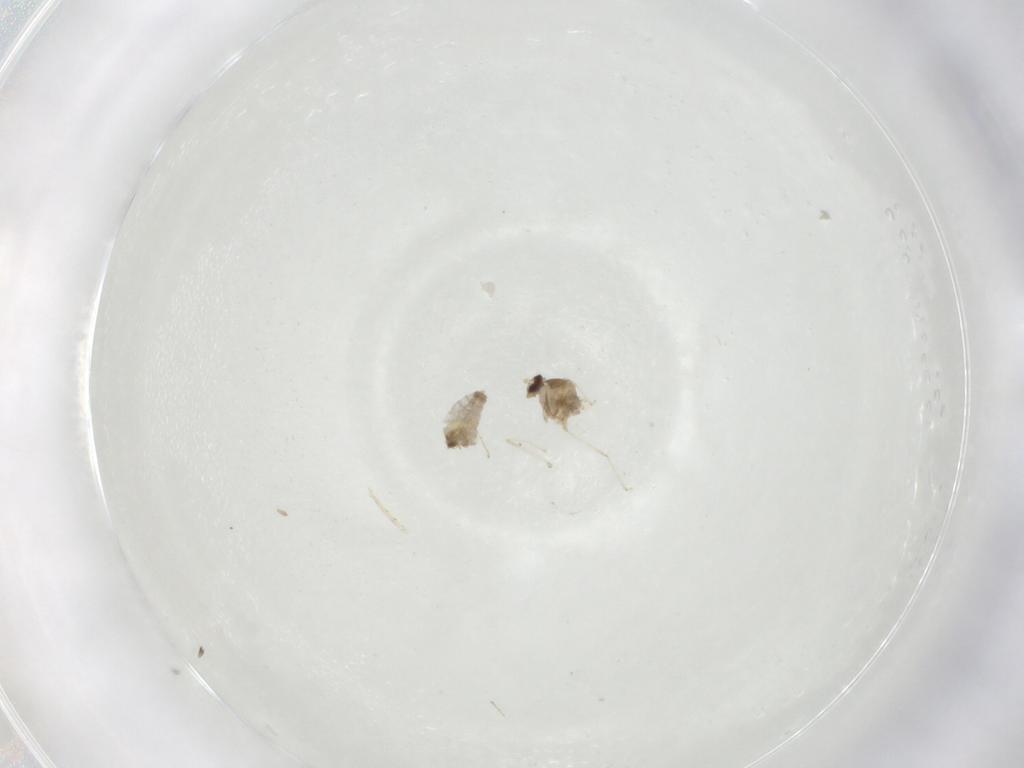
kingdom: Animalia
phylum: Arthropoda
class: Insecta
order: Diptera
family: Cecidomyiidae
